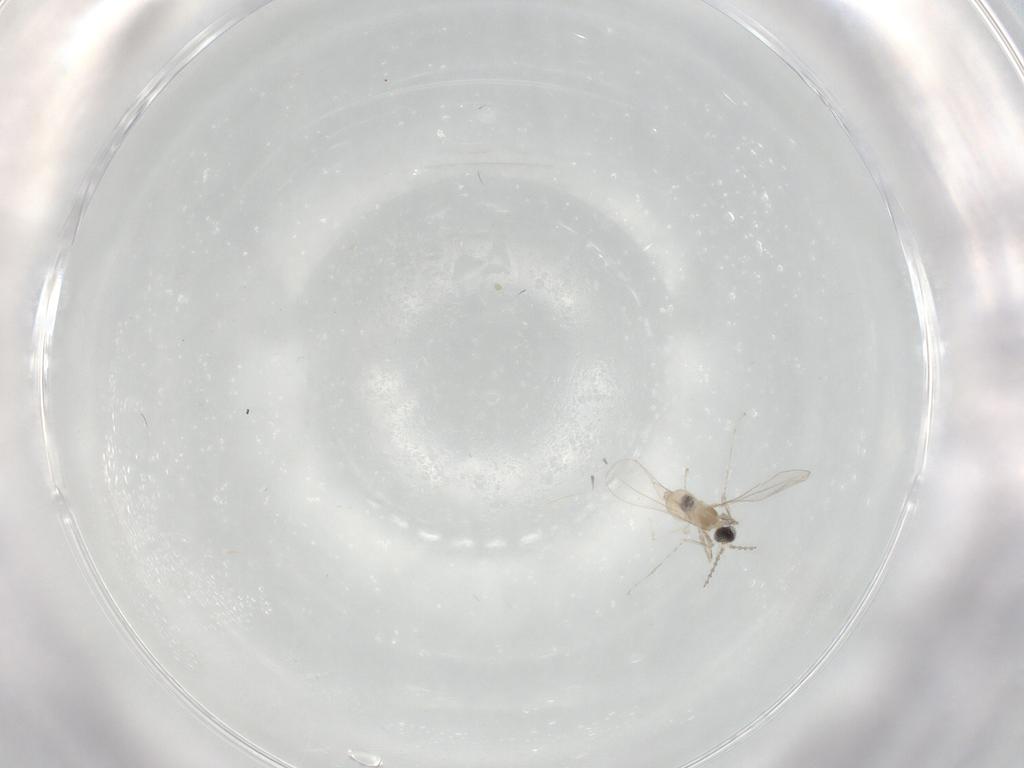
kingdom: Animalia
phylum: Arthropoda
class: Insecta
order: Diptera
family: Cecidomyiidae
